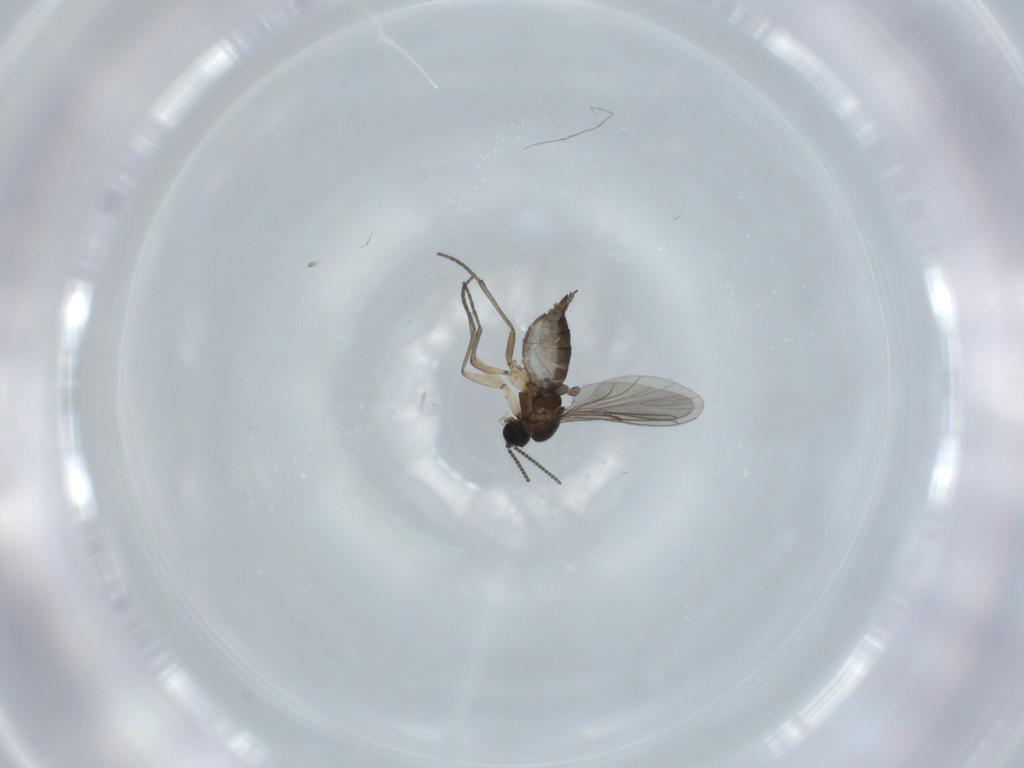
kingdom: Animalia
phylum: Arthropoda
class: Insecta
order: Diptera
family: Sciaridae
